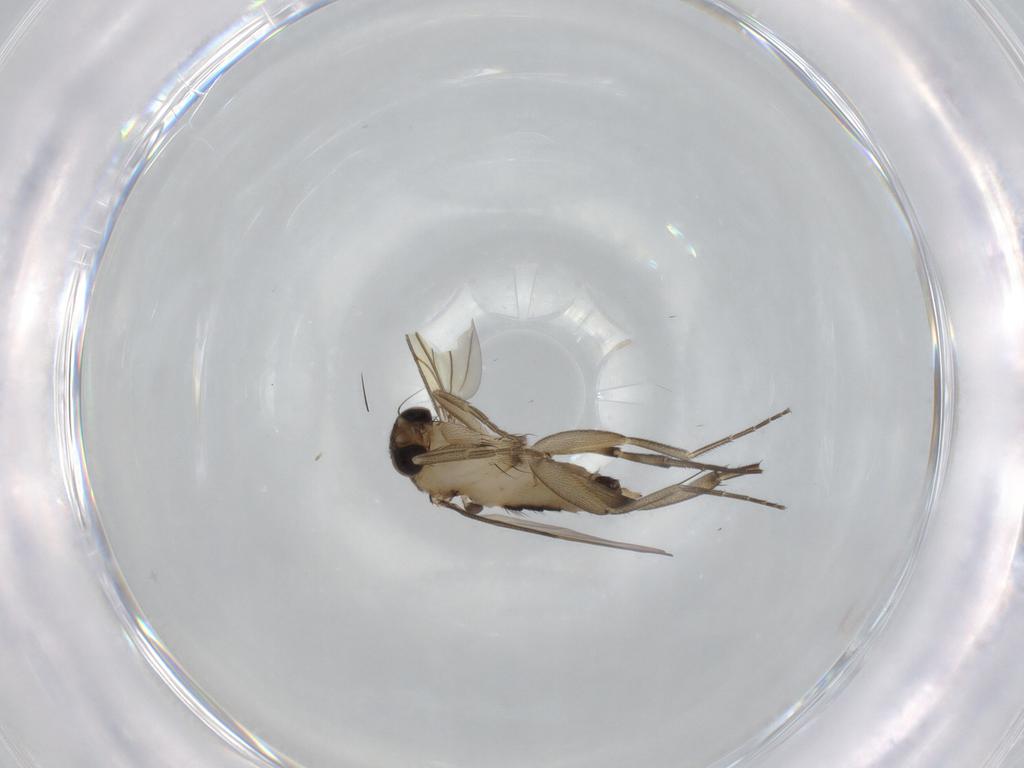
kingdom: Animalia
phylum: Arthropoda
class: Insecta
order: Diptera
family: Phoridae
